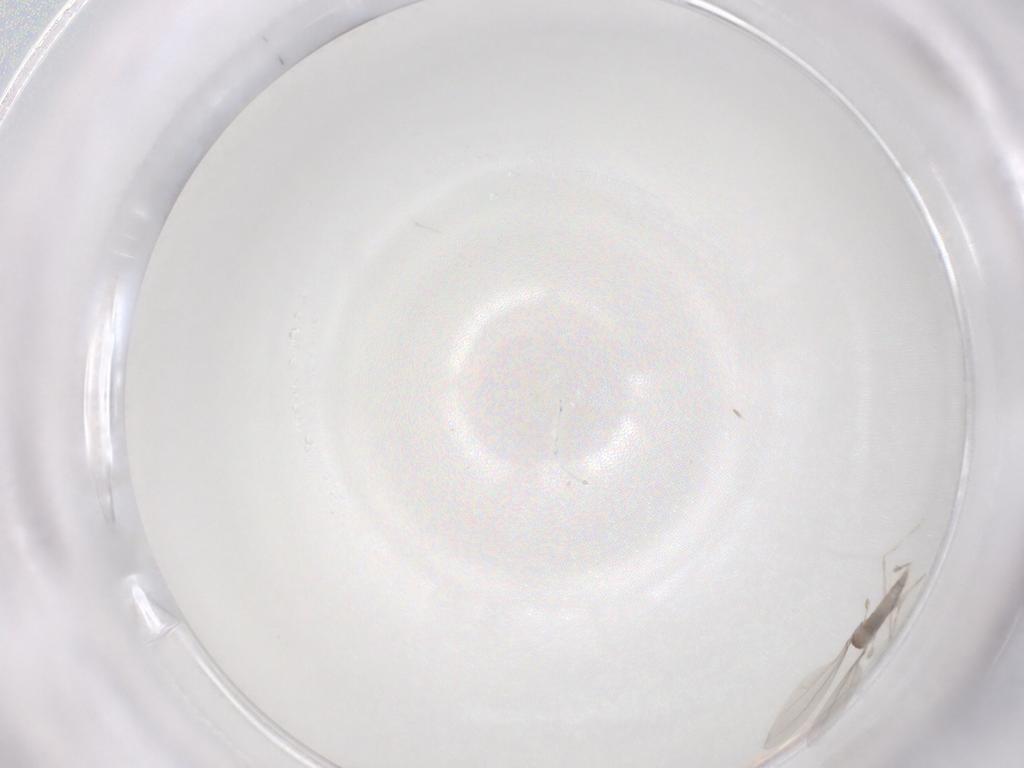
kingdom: Animalia
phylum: Arthropoda
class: Insecta
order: Diptera
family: Cecidomyiidae
